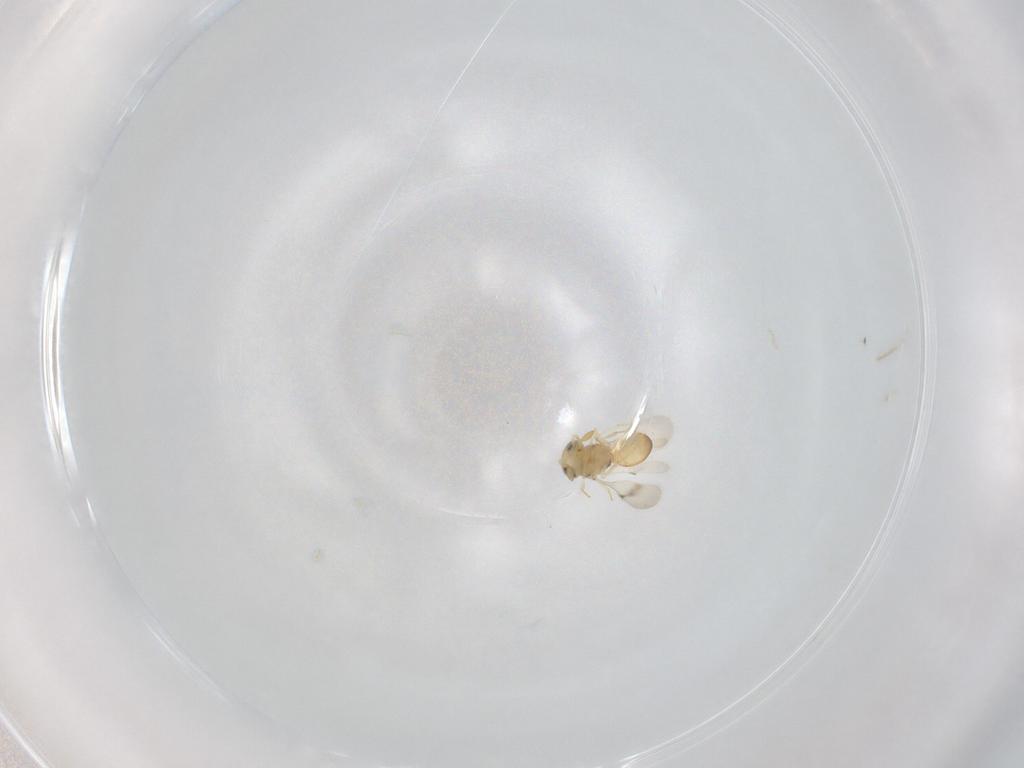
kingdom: Animalia
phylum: Arthropoda
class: Insecta
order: Hymenoptera
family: Scelionidae
